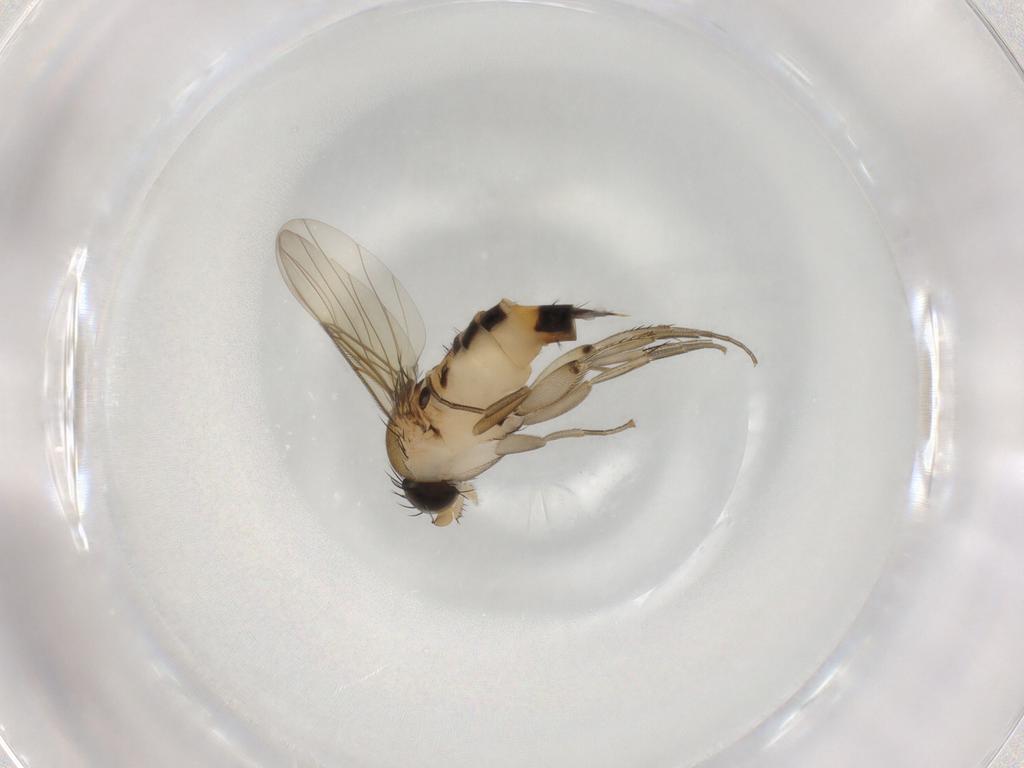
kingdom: Animalia
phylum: Arthropoda
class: Insecta
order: Diptera
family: Phoridae
